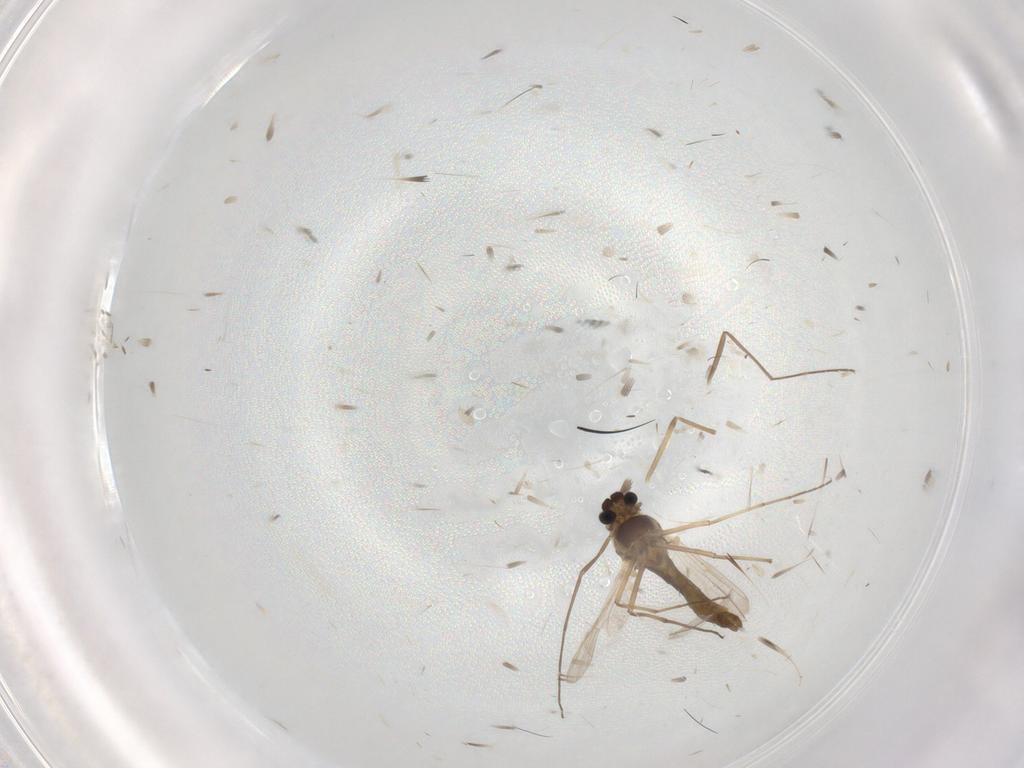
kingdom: Animalia
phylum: Arthropoda
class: Insecta
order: Diptera
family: Chironomidae
